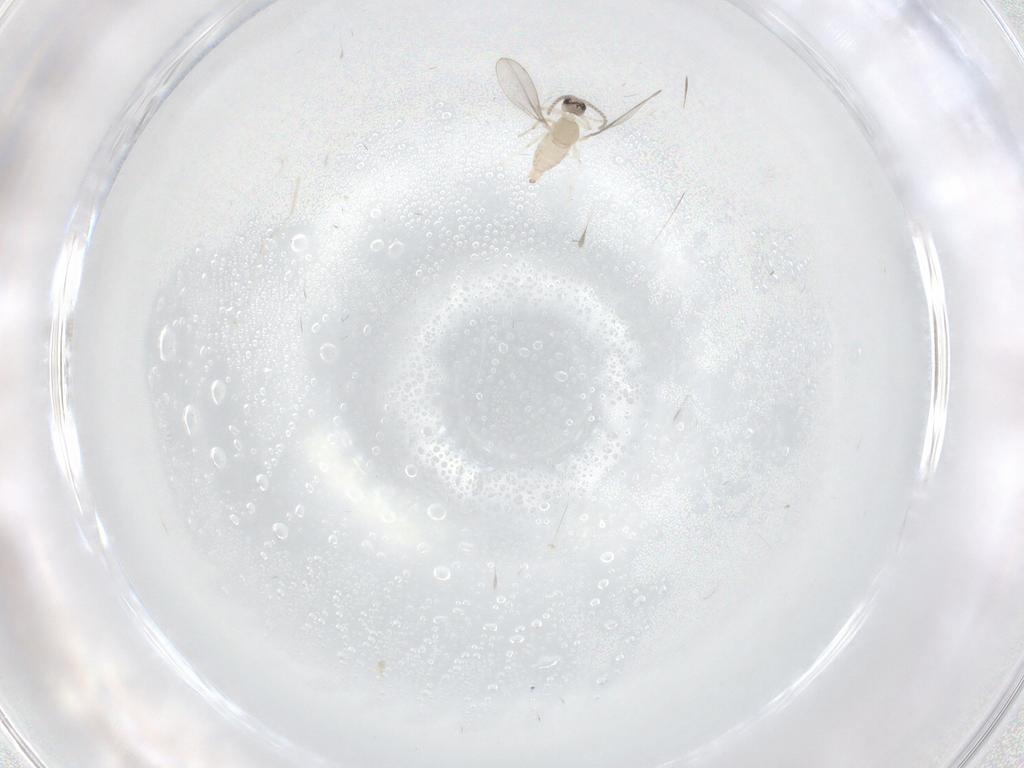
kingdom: Animalia
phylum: Arthropoda
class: Insecta
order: Diptera
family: Cecidomyiidae
